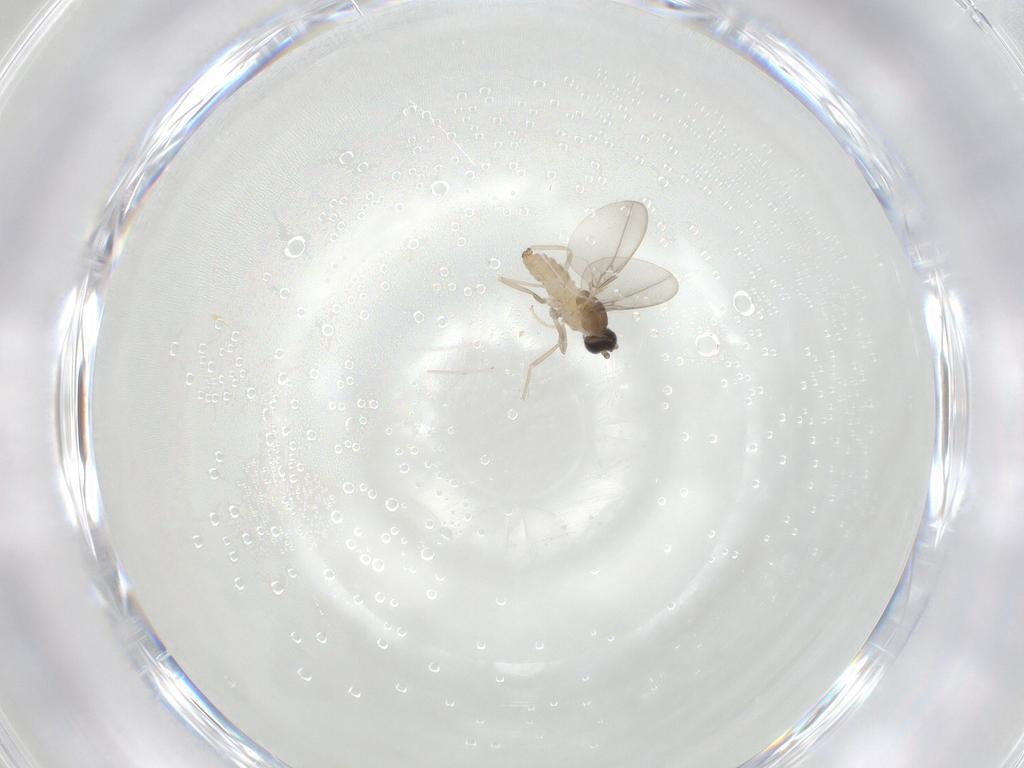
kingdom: Animalia
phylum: Arthropoda
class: Insecta
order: Diptera
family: Cecidomyiidae
